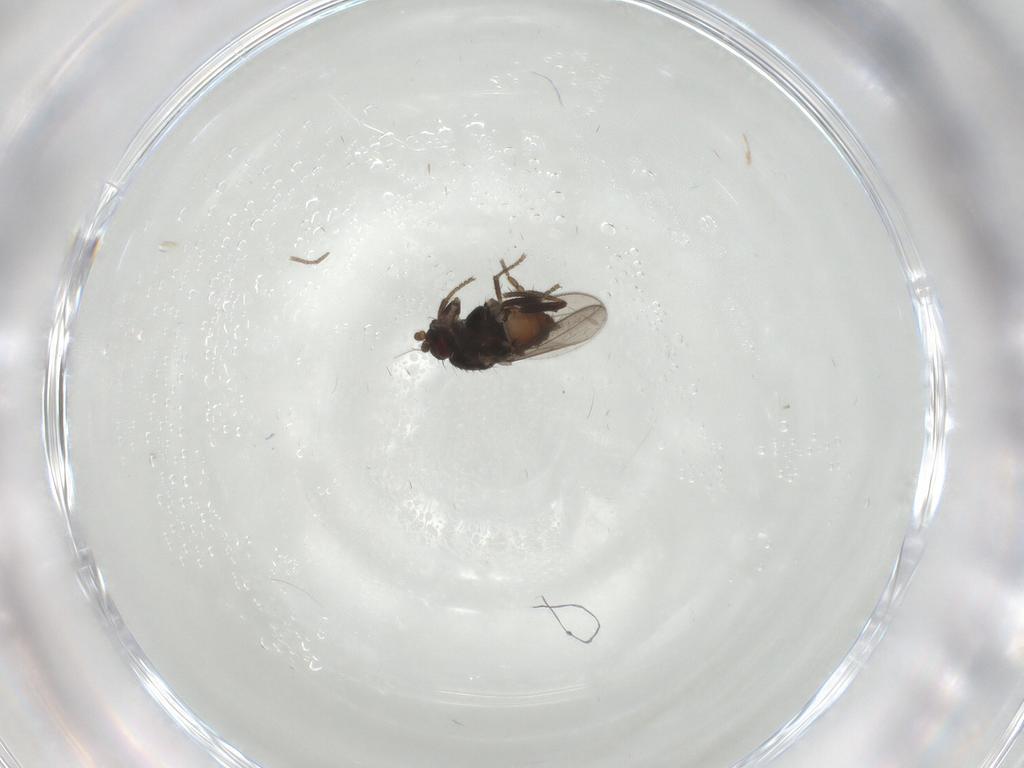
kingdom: Animalia
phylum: Arthropoda
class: Insecta
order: Diptera
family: Sphaeroceridae
